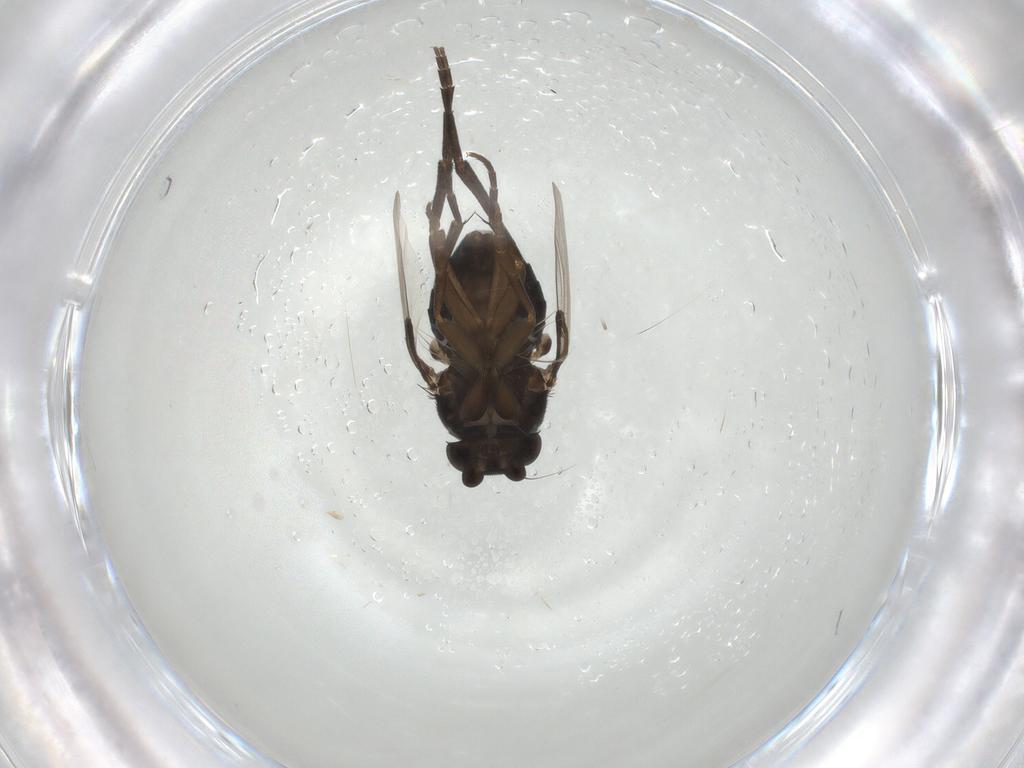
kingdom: Animalia
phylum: Arthropoda
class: Insecta
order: Diptera
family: Phoridae
